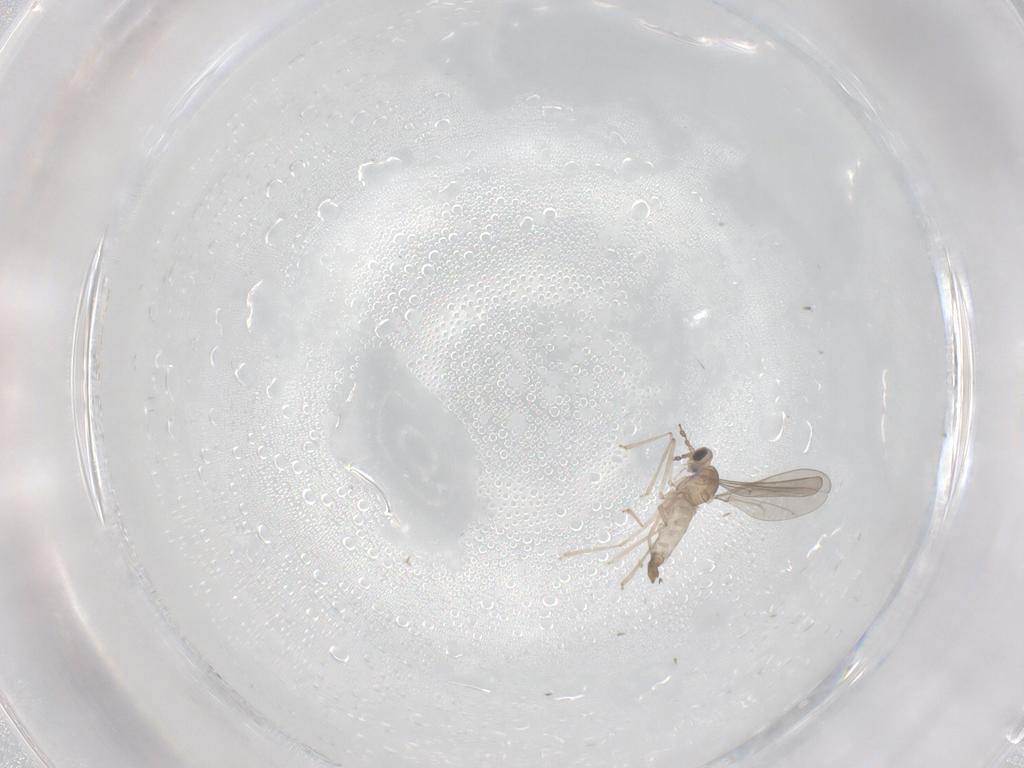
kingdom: Animalia
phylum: Arthropoda
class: Insecta
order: Diptera
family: Cecidomyiidae
